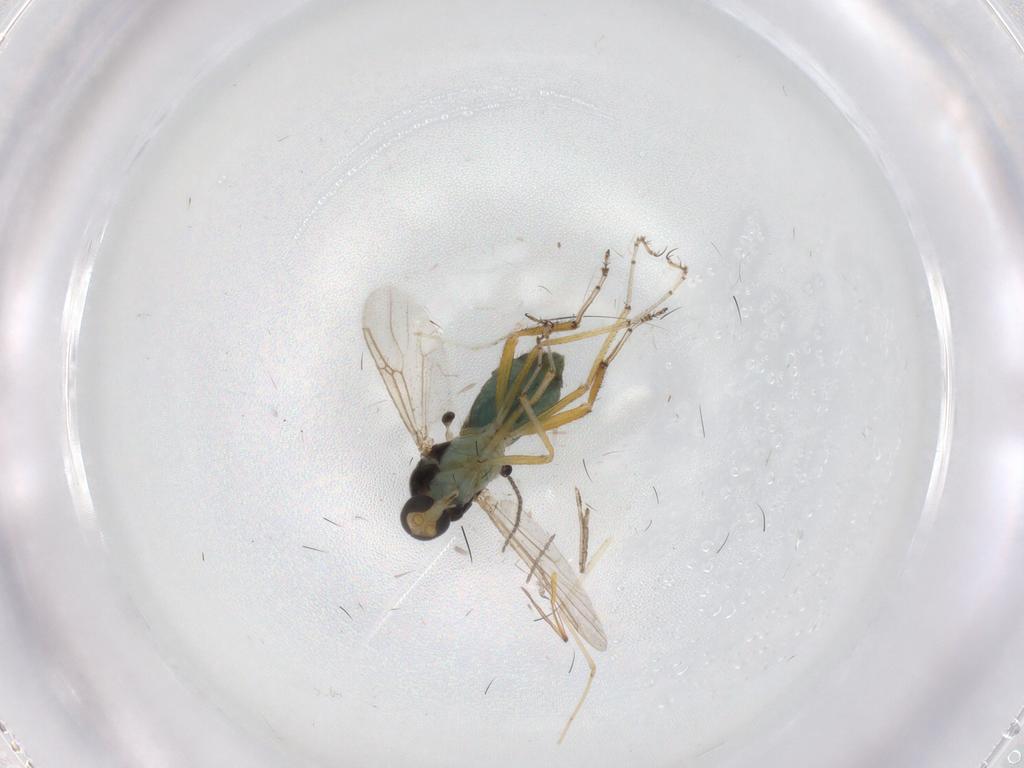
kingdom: Animalia
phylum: Arthropoda
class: Insecta
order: Diptera
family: Ceratopogonidae
